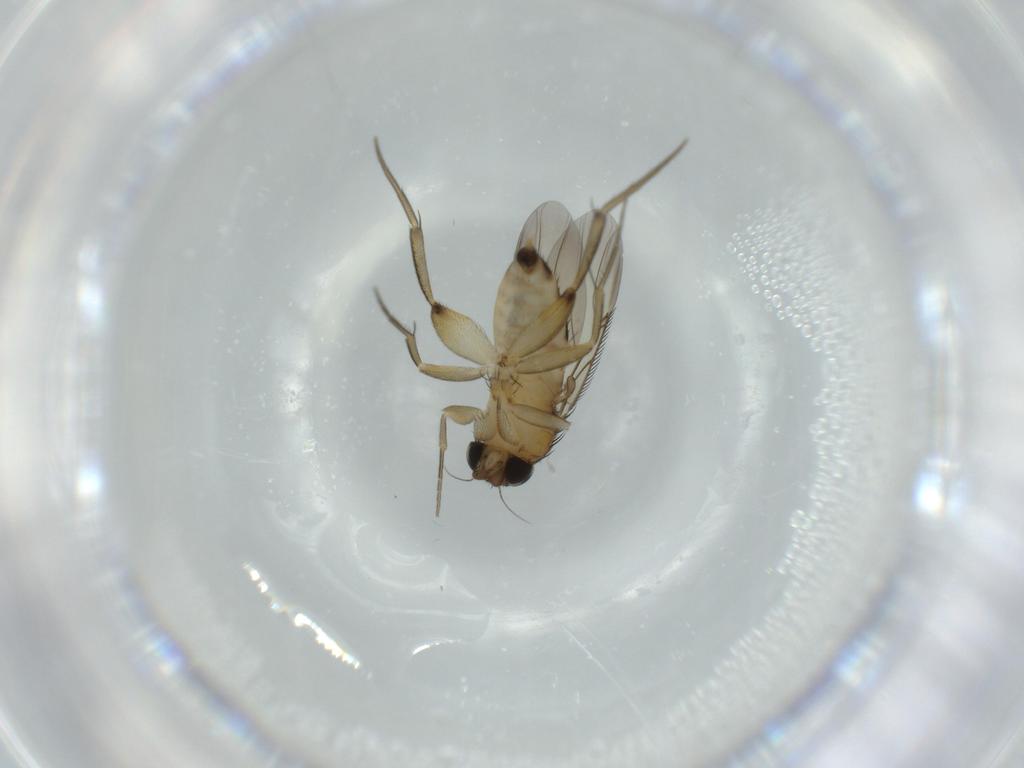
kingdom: Animalia
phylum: Arthropoda
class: Insecta
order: Diptera
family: Phoridae
